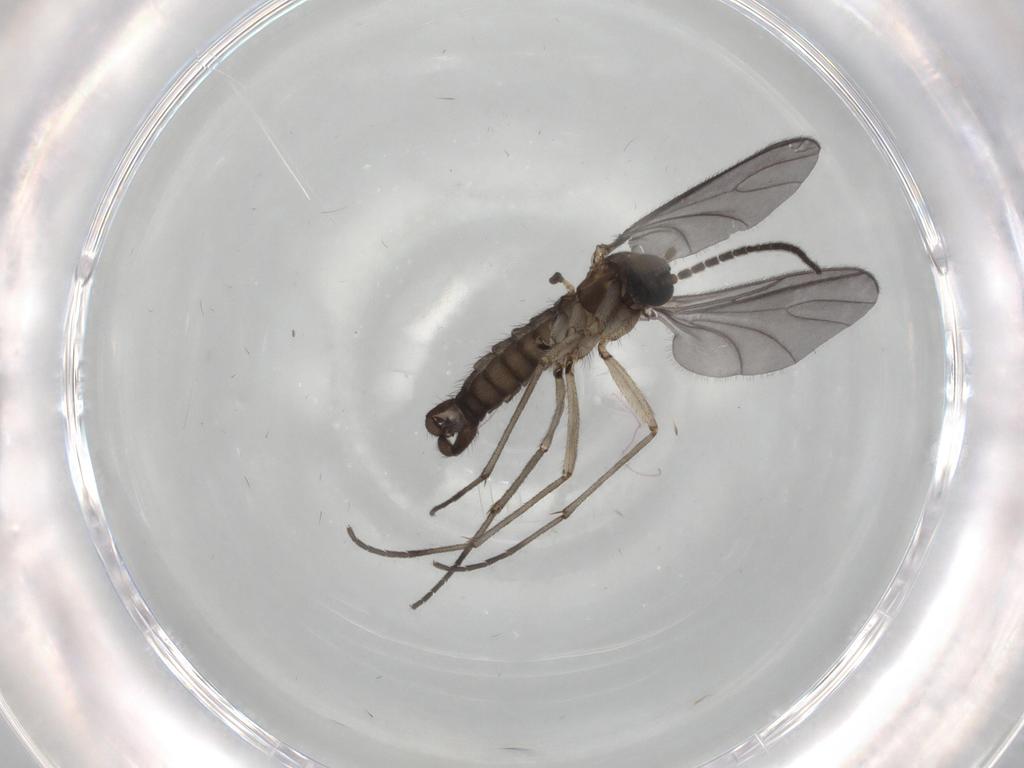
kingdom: Animalia
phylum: Arthropoda
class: Insecta
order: Diptera
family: Sciaridae
